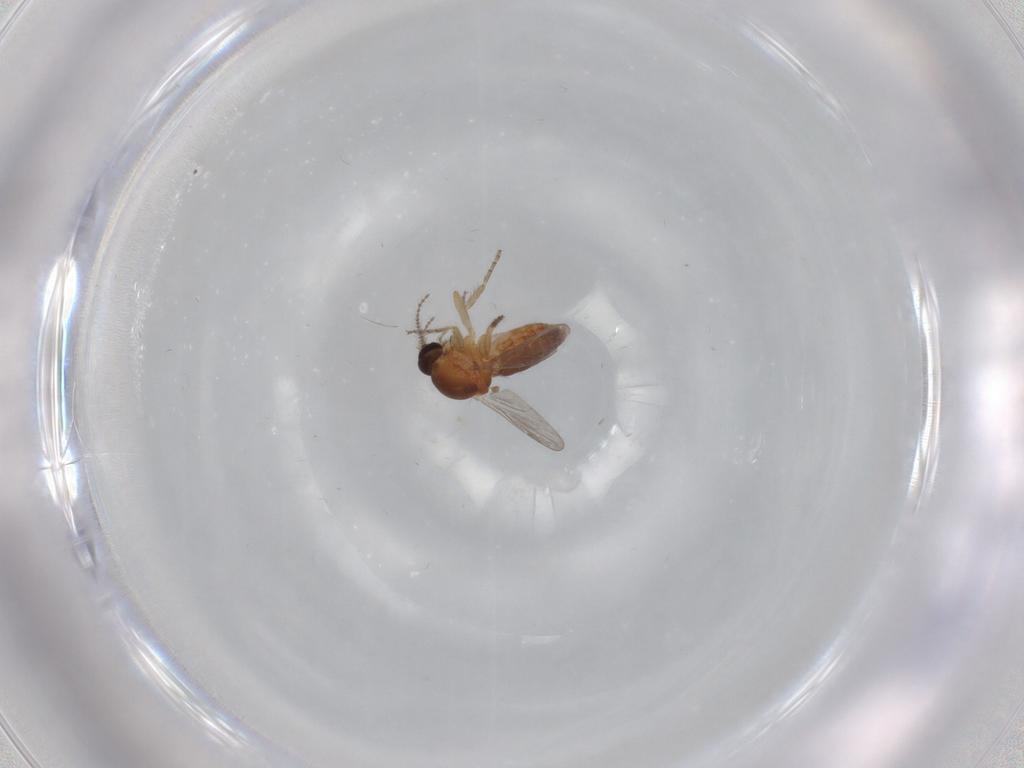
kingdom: Animalia
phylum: Arthropoda
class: Insecta
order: Diptera
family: Ceratopogonidae
